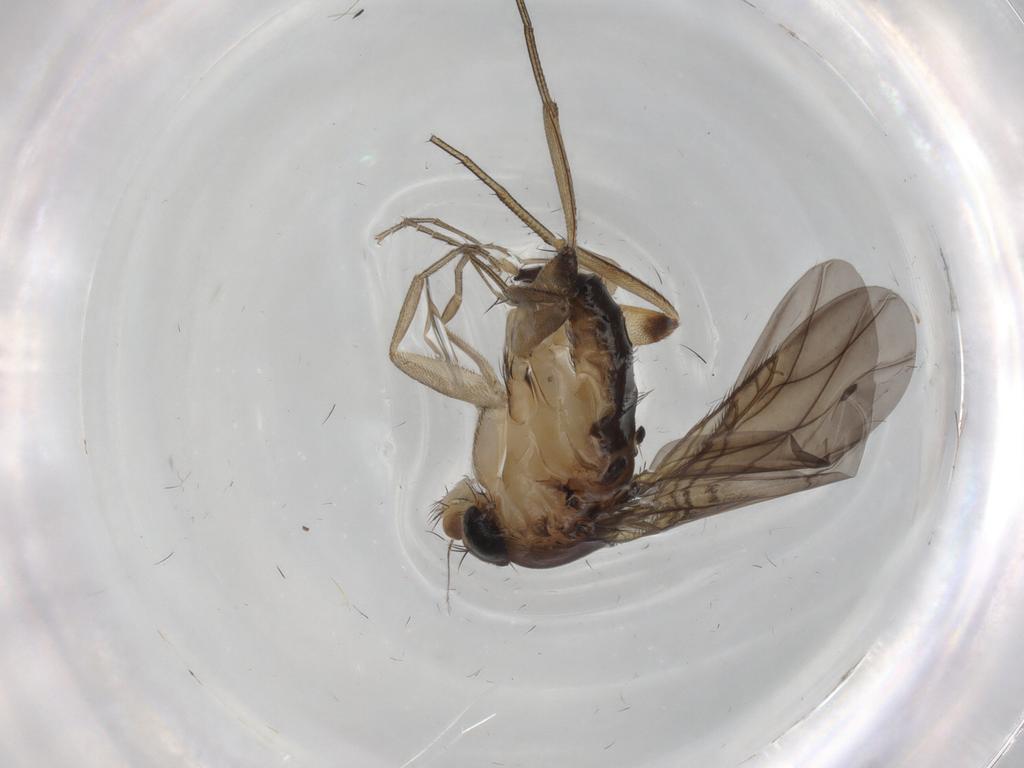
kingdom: Animalia
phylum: Arthropoda
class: Insecta
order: Diptera
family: Phoridae
